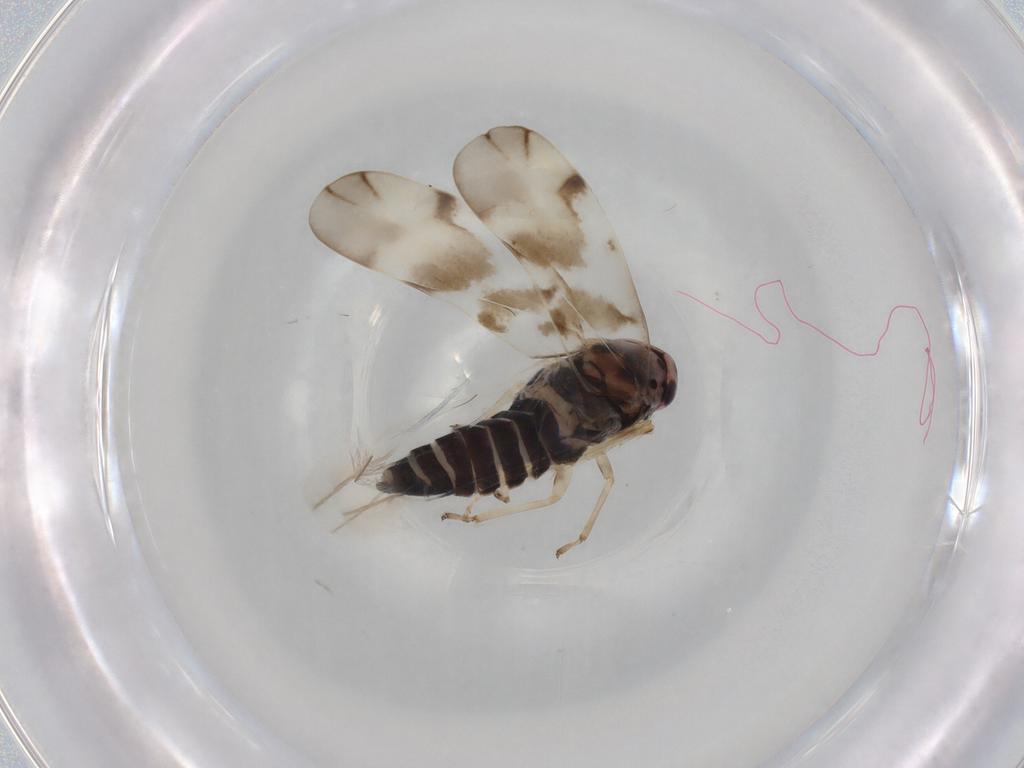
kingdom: Animalia
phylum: Arthropoda
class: Insecta
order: Hemiptera
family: Cicadellidae
